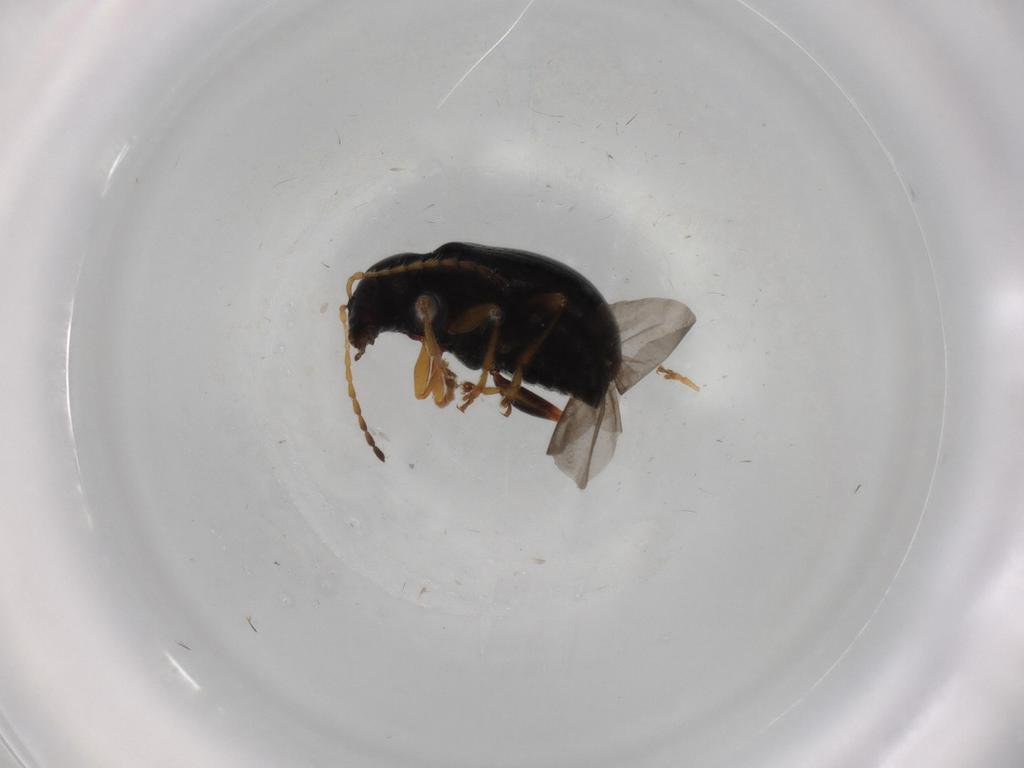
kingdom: Animalia
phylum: Arthropoda
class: Insecta
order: Coleoptera
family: Chrysomelidae
